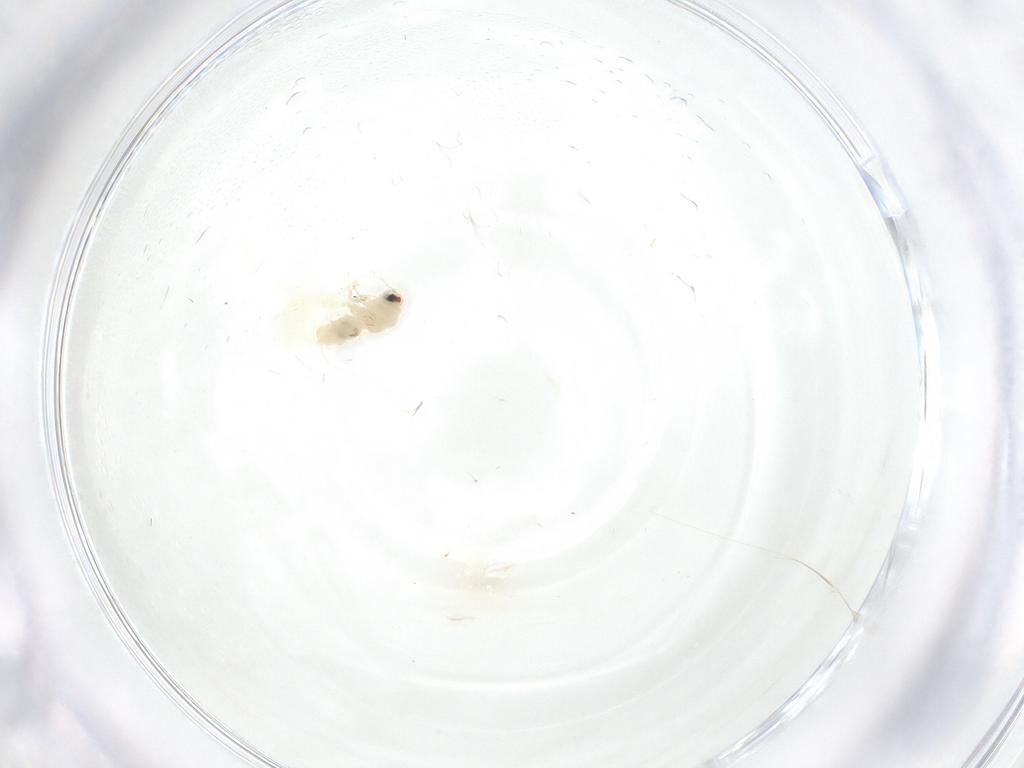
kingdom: Animalia
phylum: Arthropoda
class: Insecta
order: Hemiptera
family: Aleyrodidae
